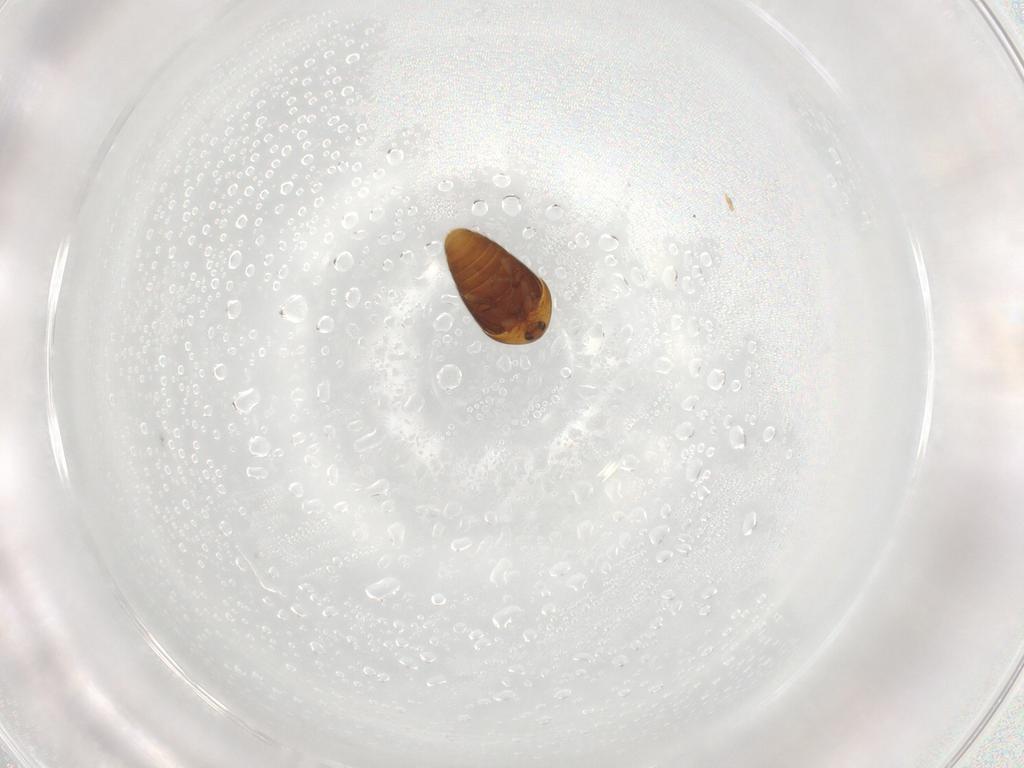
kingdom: Animalia
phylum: Arthropoda
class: Insecta
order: Coleoptera
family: Corylophidae
